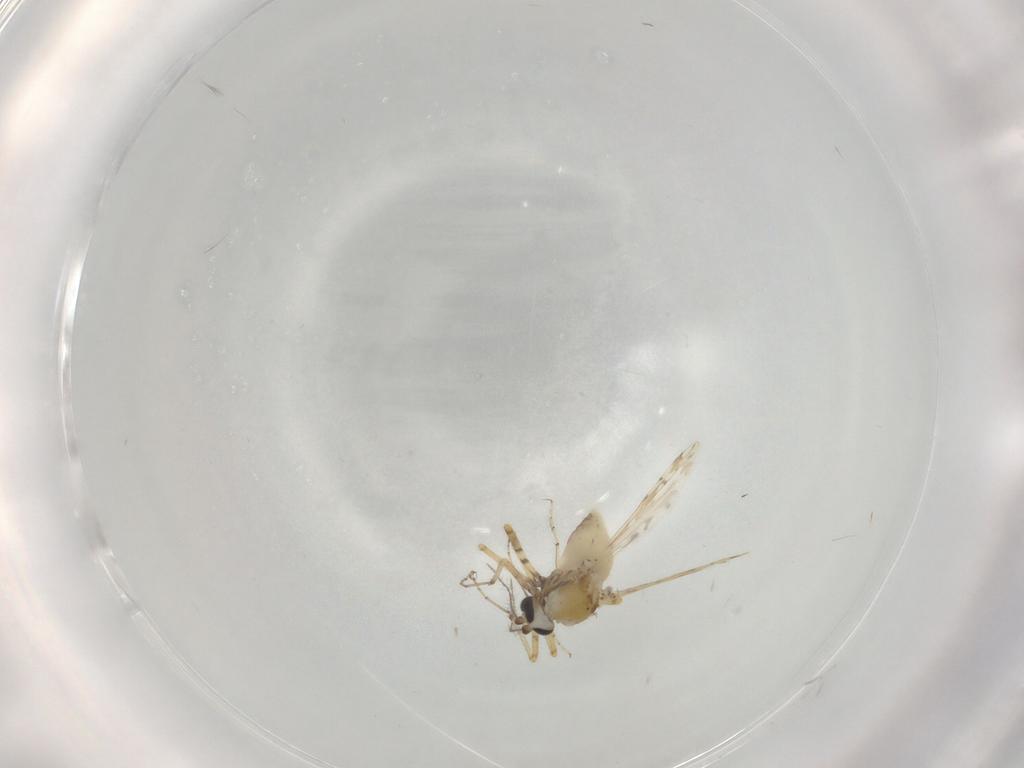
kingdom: Animalia
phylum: Arthropoda
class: Insecta
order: Diptera
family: Ceratopogonidae
